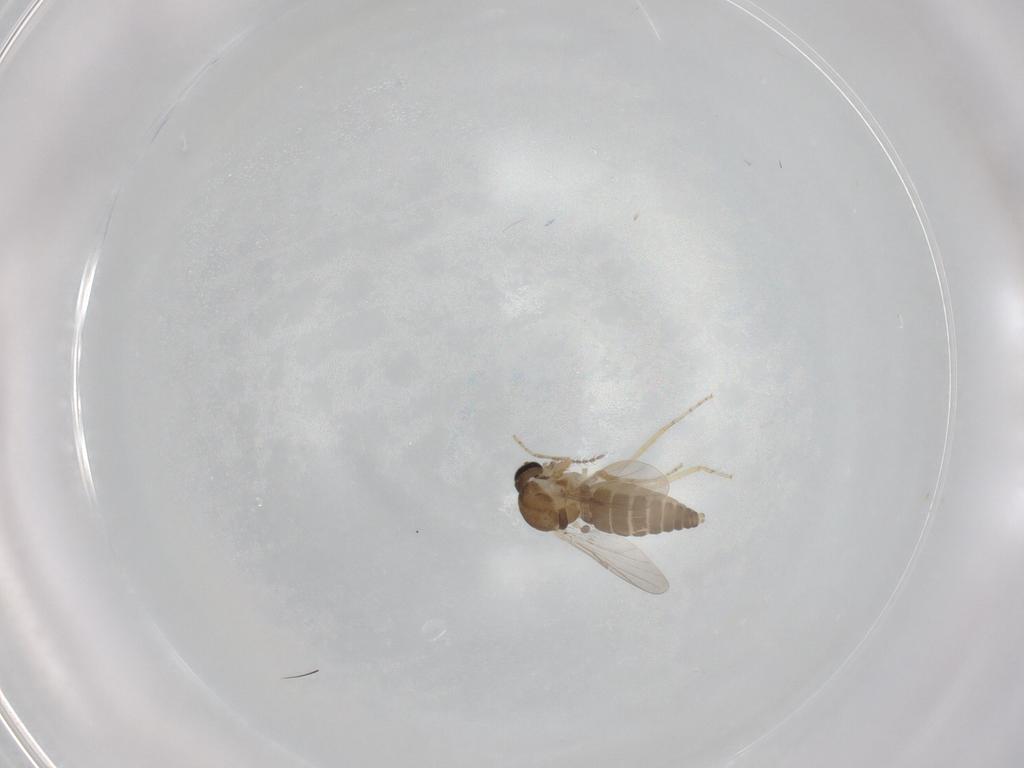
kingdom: Animalia
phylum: Arthropoda
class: Insecta
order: Diptera
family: Ceratopogonidae
